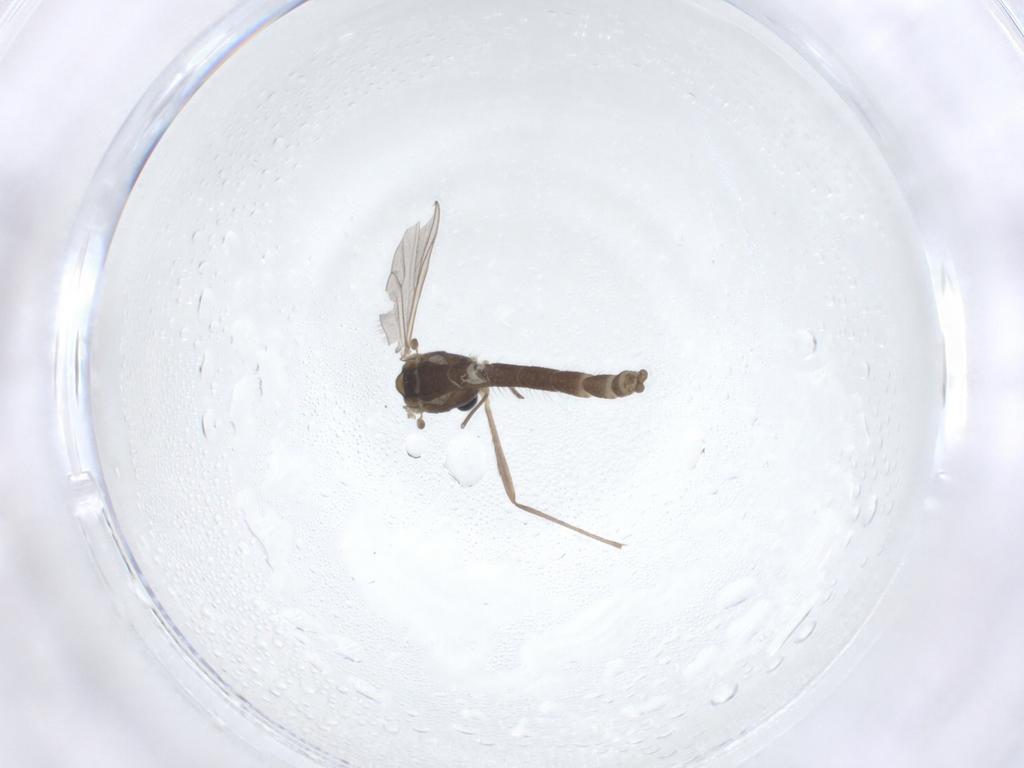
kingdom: Animalia
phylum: Arthropoda
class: Insecta
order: Diptera
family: Chironomidae
